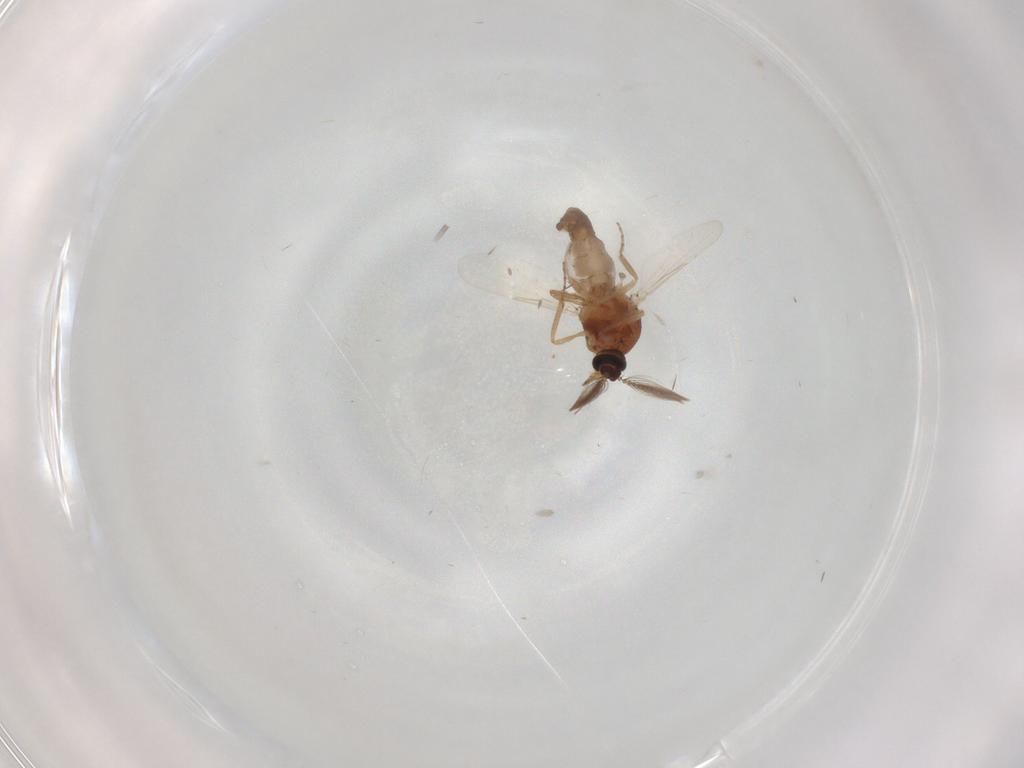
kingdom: Animalia
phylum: Arthropoda
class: Insecta
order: Diptera
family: Ceratopogonidae
